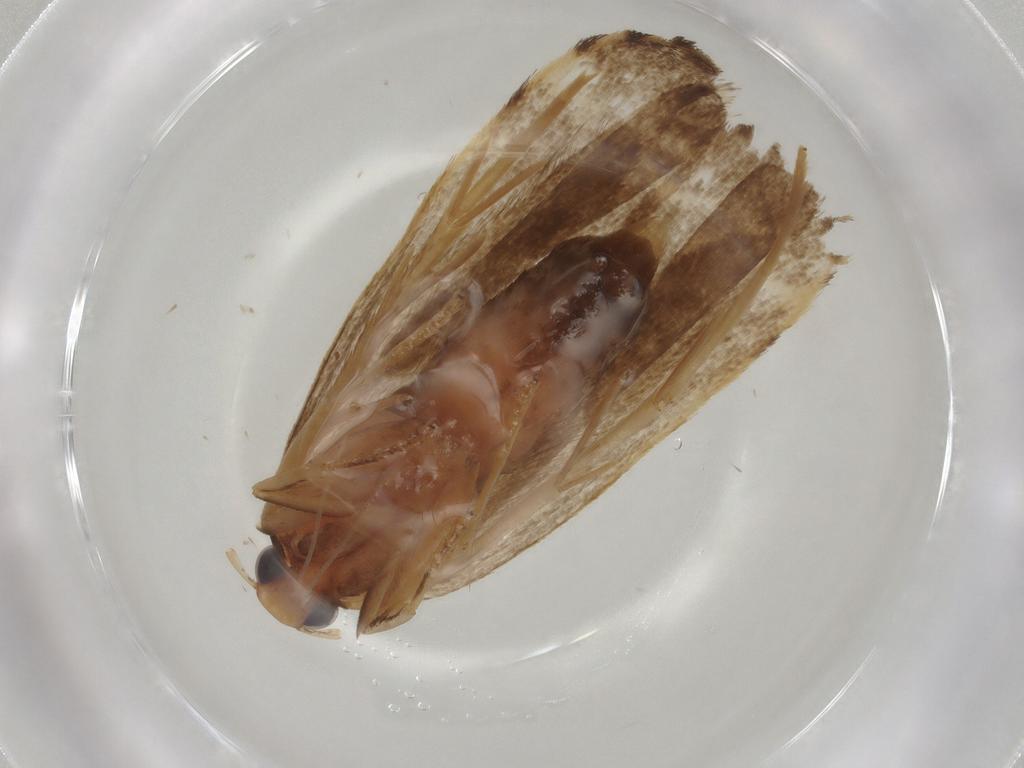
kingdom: Animalia
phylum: Arthropoda
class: Insecta
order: Lepidoptera
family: Lecithoceridae
